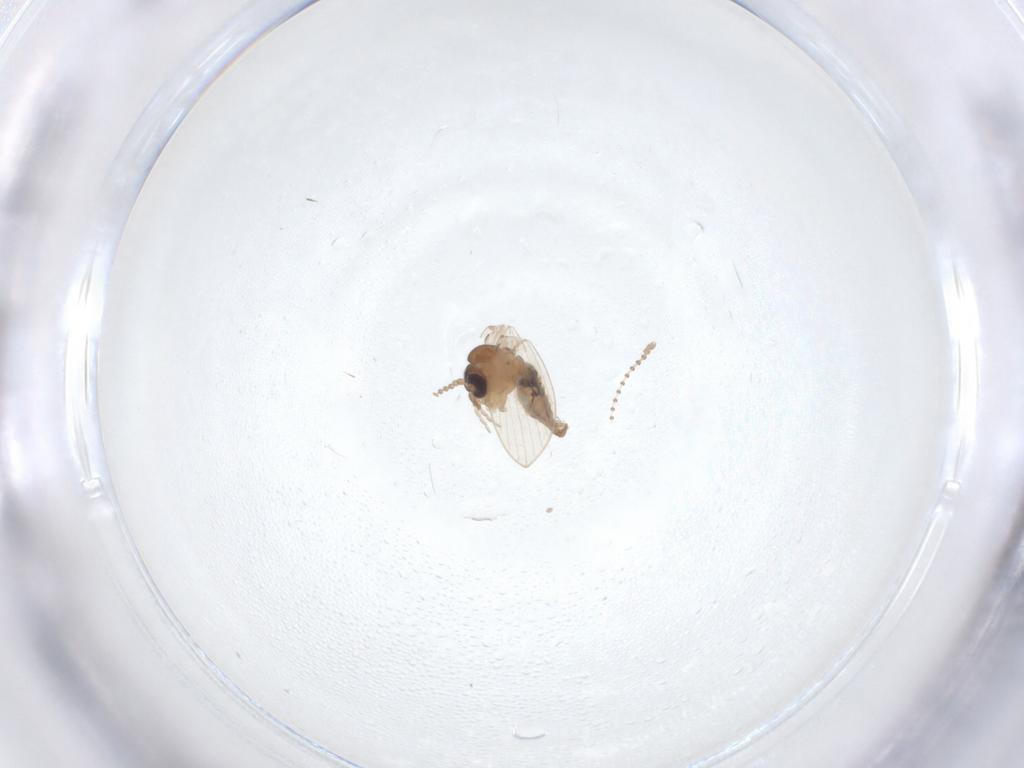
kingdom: Animalia
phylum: Arthropoda
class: Insecta
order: Diptera
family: Psychodidae
